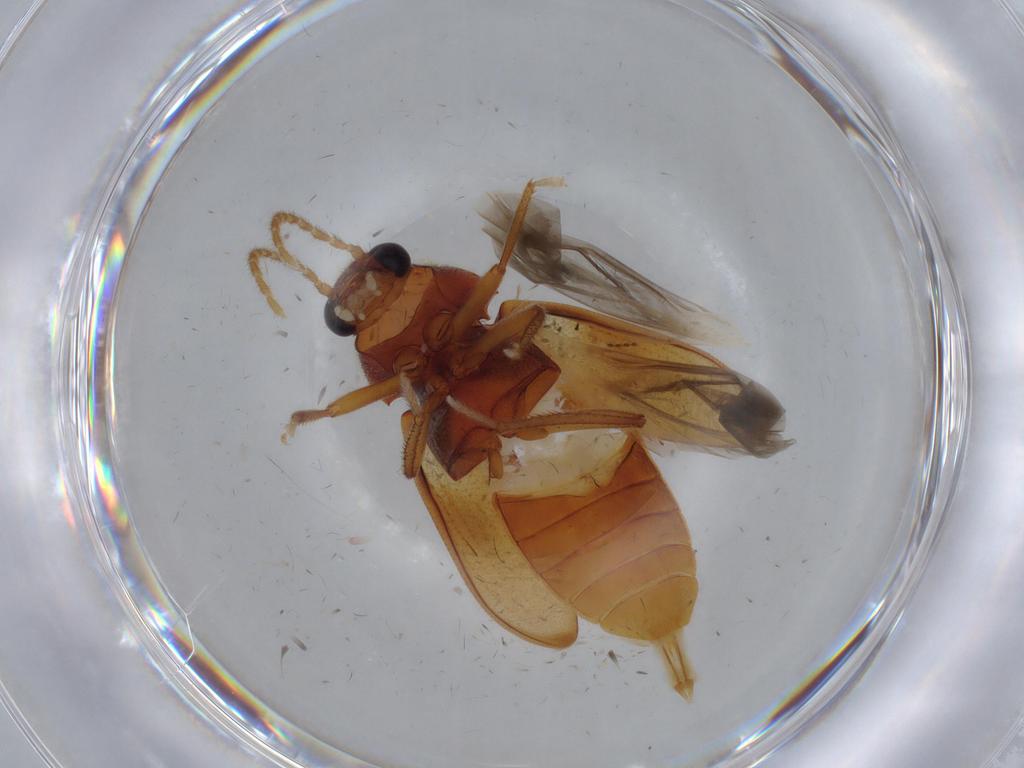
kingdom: Animalia
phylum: Arthropoda
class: Insecta
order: Coleoptera
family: Ptilodactylidae
